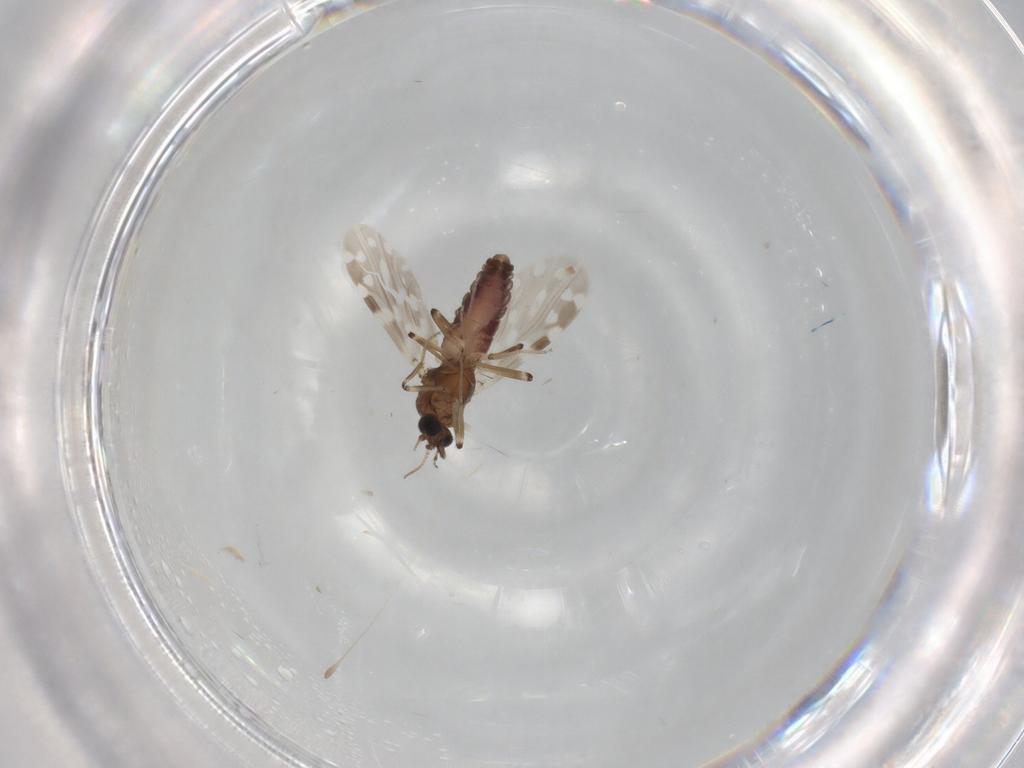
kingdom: Animalia
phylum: Arthropoda
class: Insecta
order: Diptera
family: Ceratopogonidae
